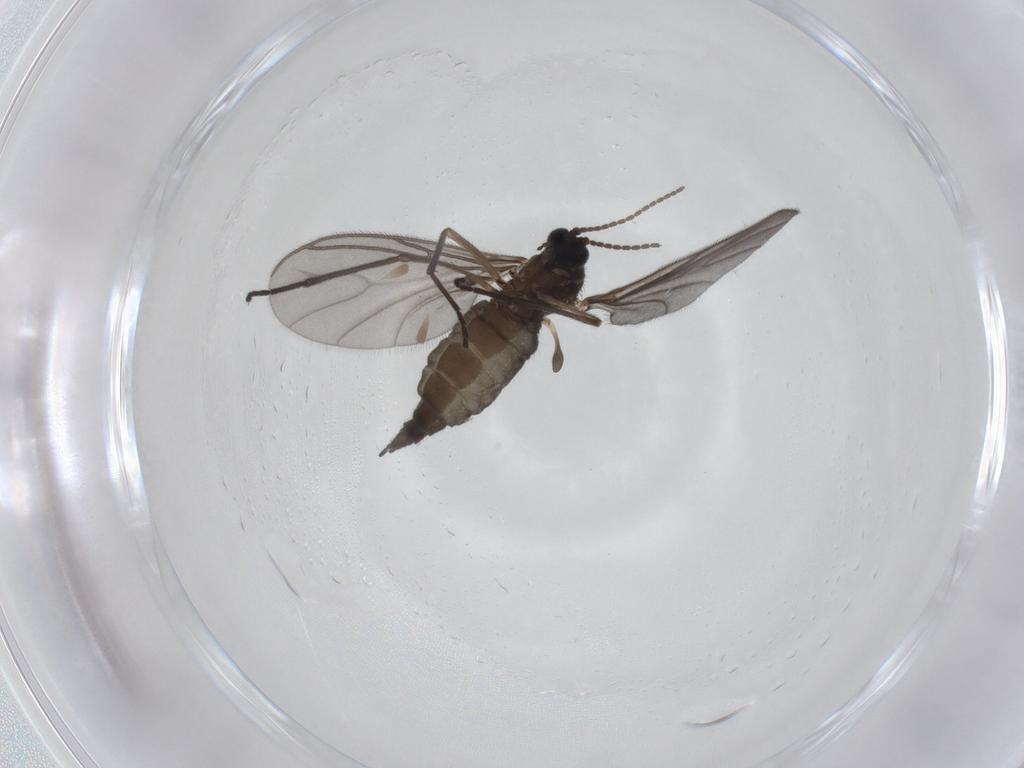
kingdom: Animalia
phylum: Arthropoda
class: Insecta
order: Diptera
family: Sciaridae
